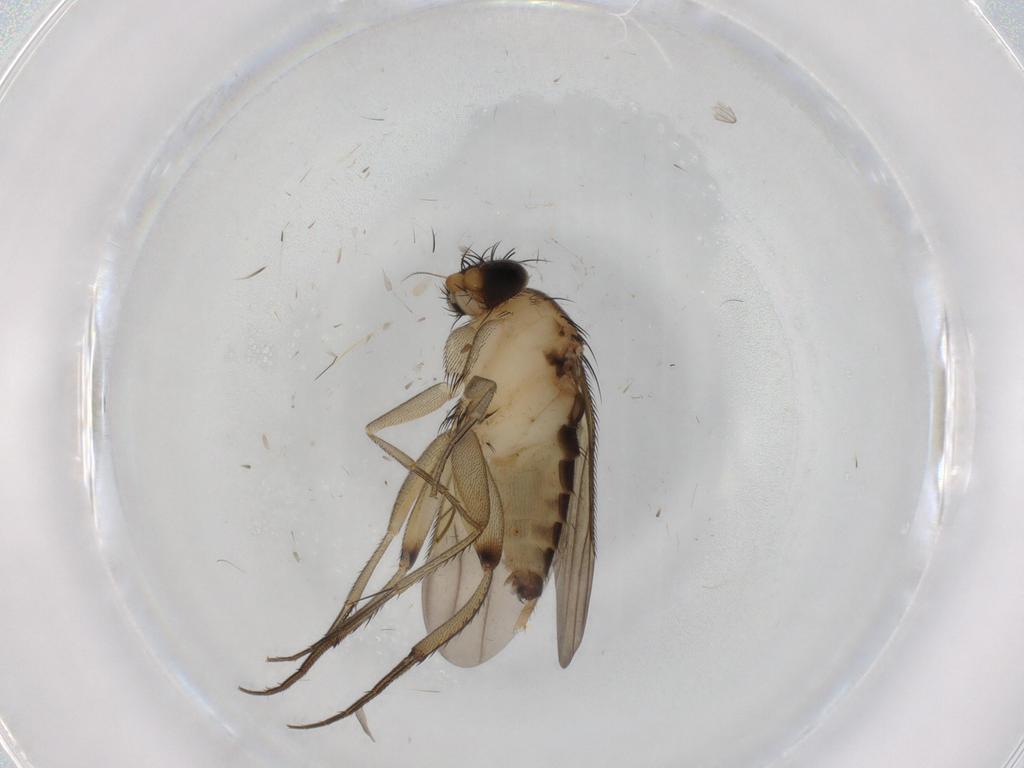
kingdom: Animalia
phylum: Arthropoda
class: Insecta
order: Diptera
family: Phoridae
